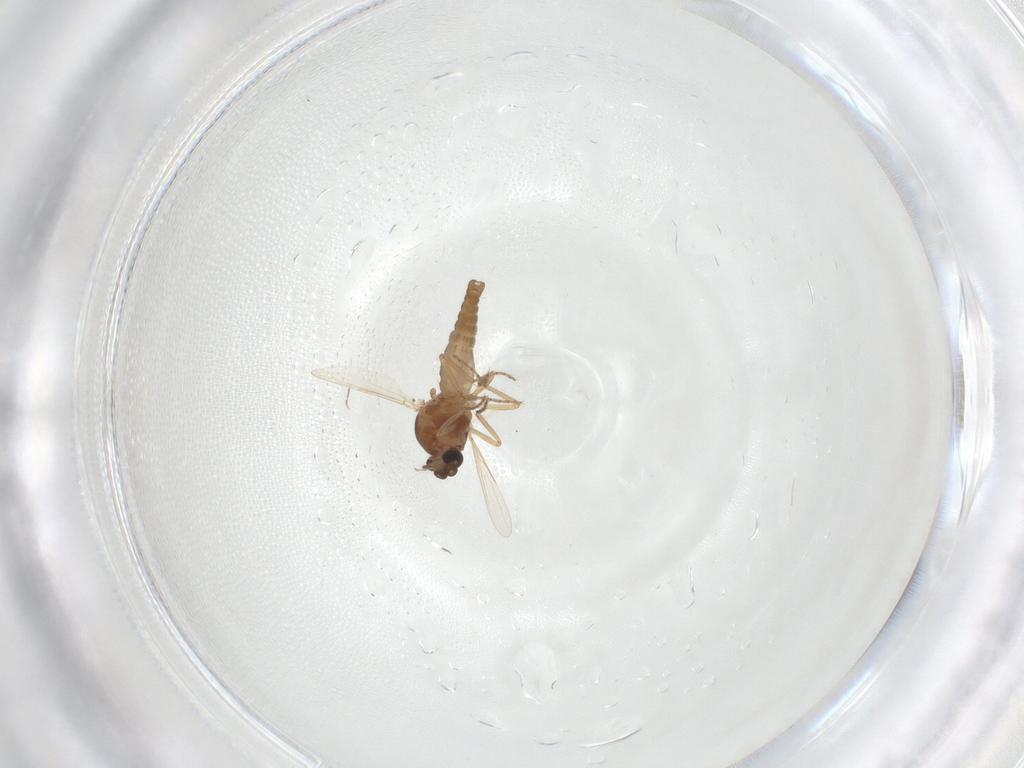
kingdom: Animalia
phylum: Arthropoda
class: Insecta
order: Diptera
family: Ceratopogonidae
